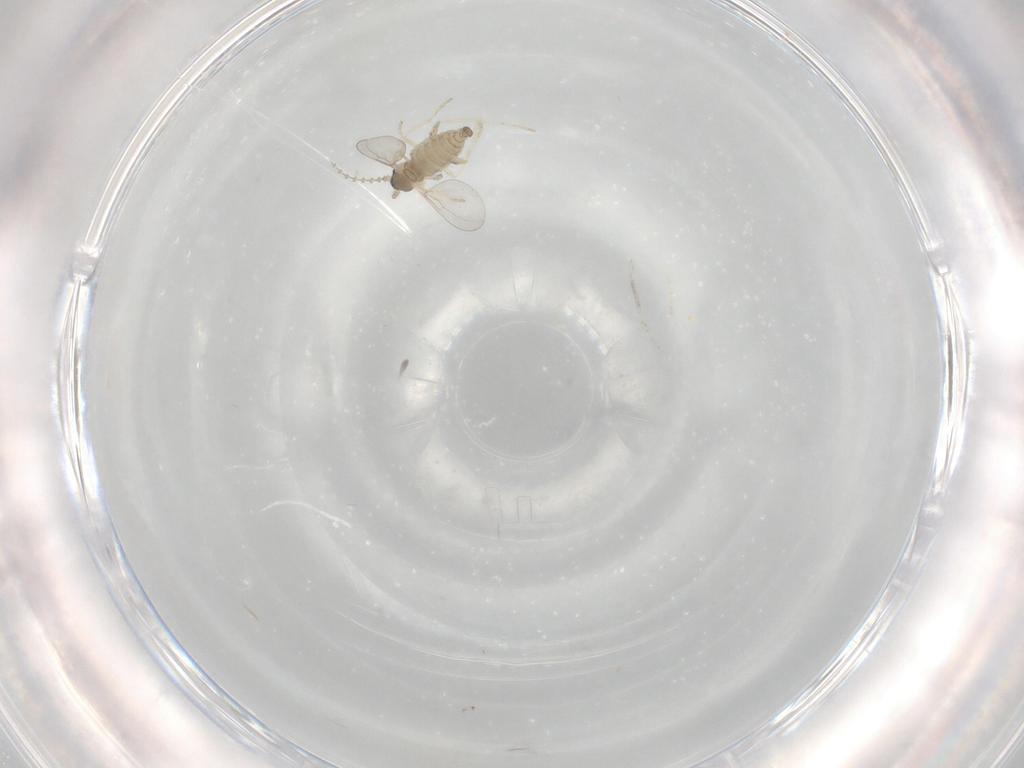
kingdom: Animalia
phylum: Arthropoda
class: Insecta
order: Diptera
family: Cecidomyiidae
